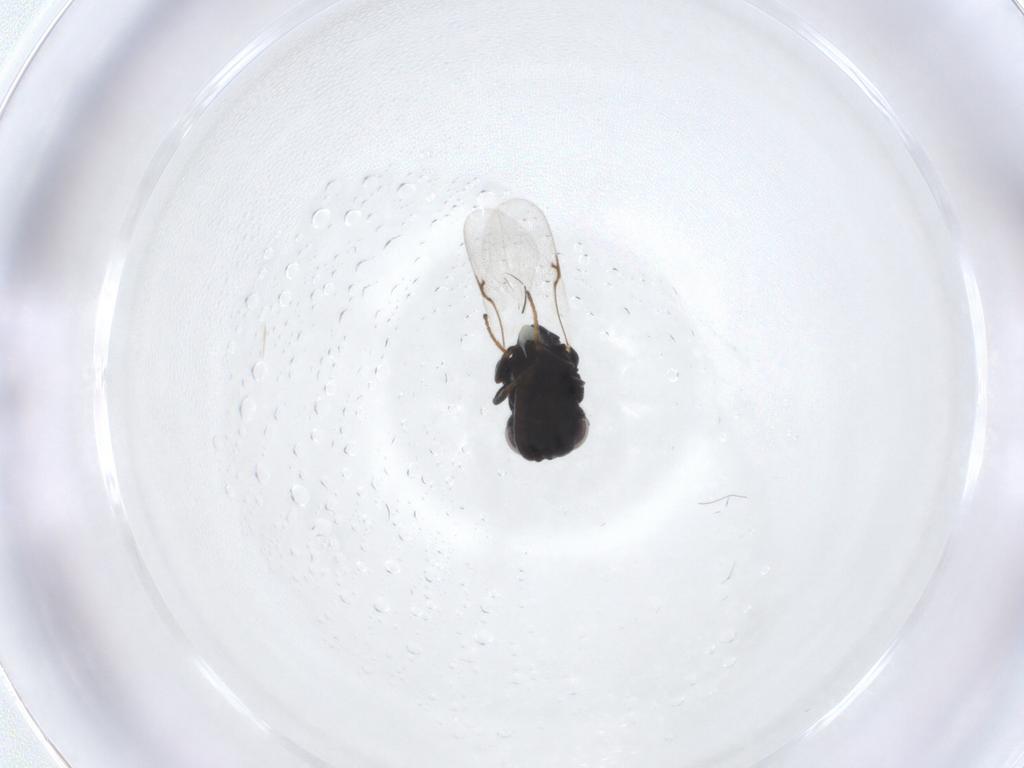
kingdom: Animalia
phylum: Arthropoda
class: Insecta
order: Hymenoptera
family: Chalcididae
